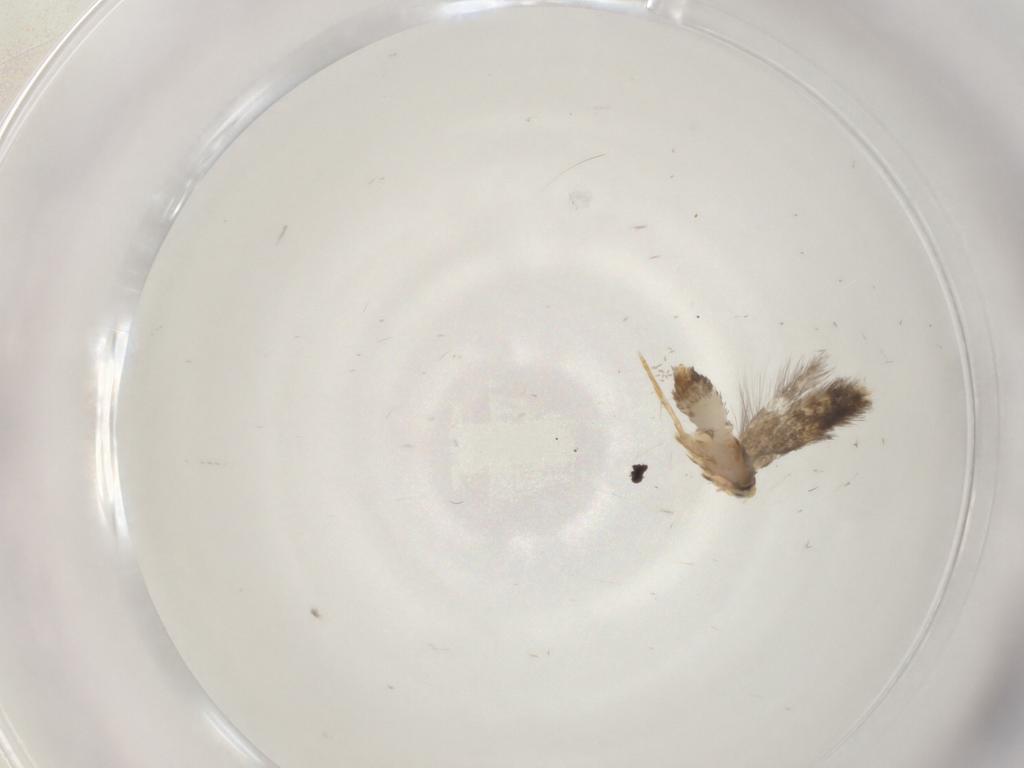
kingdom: Animalia
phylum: Arthropoda
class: Insecta
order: Lepidoptera
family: Nepticulidae
